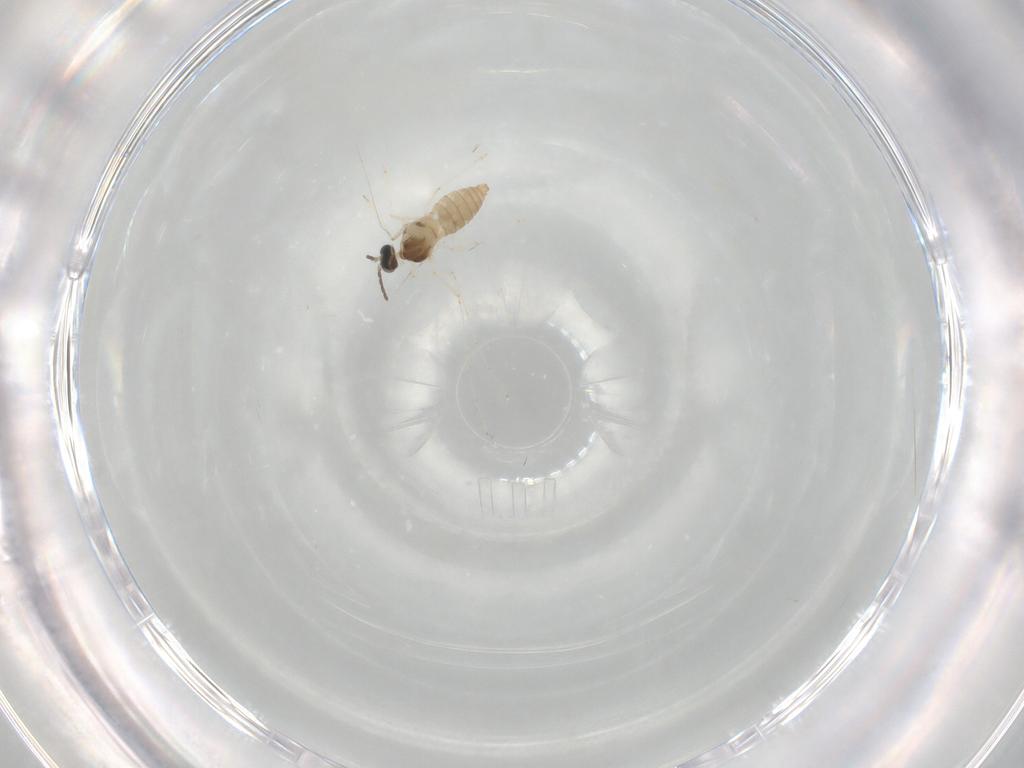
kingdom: Animalia
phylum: Arthropoda
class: Insecta
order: Diptera
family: Cecidomyiidae
